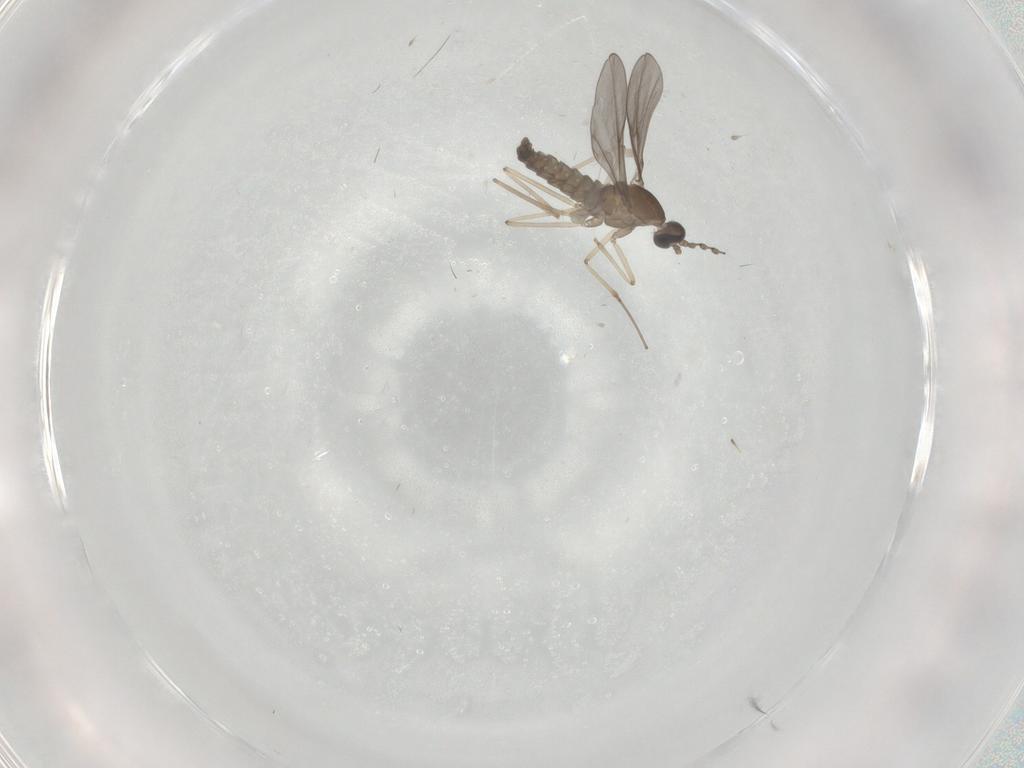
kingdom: Animalia
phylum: Arthropoda
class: Insecta
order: Diptera
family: Cecidomyiidae
